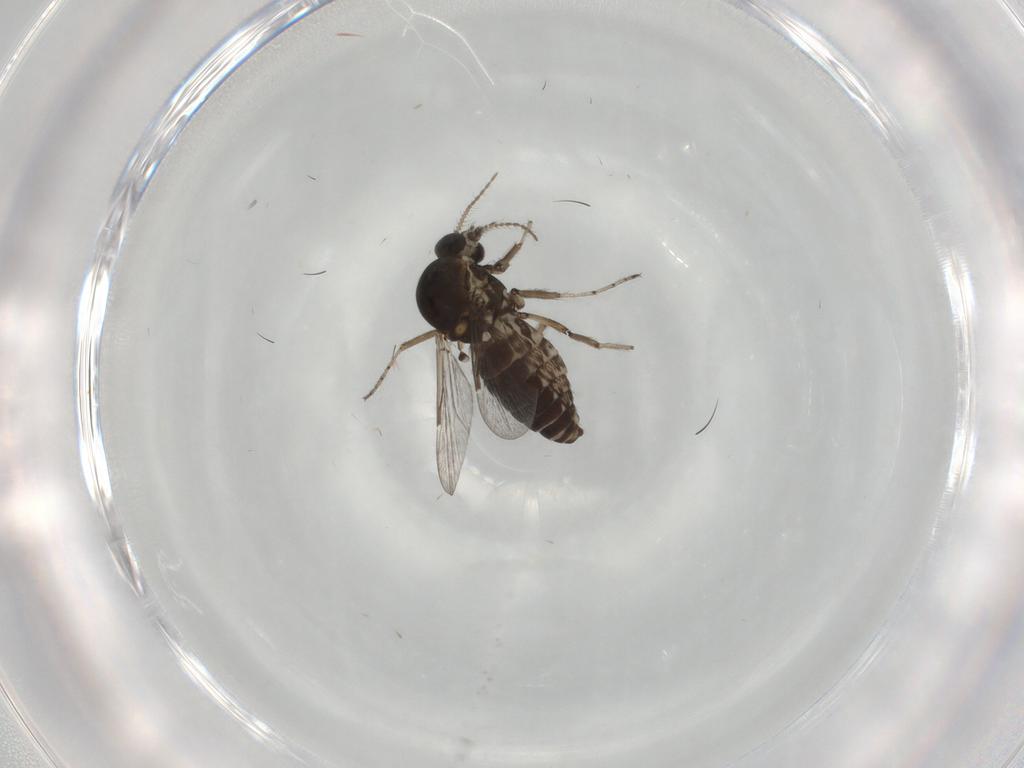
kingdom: Animalia
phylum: Arthropoda
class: Insecta
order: Diptera
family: Ceratopogonidae
